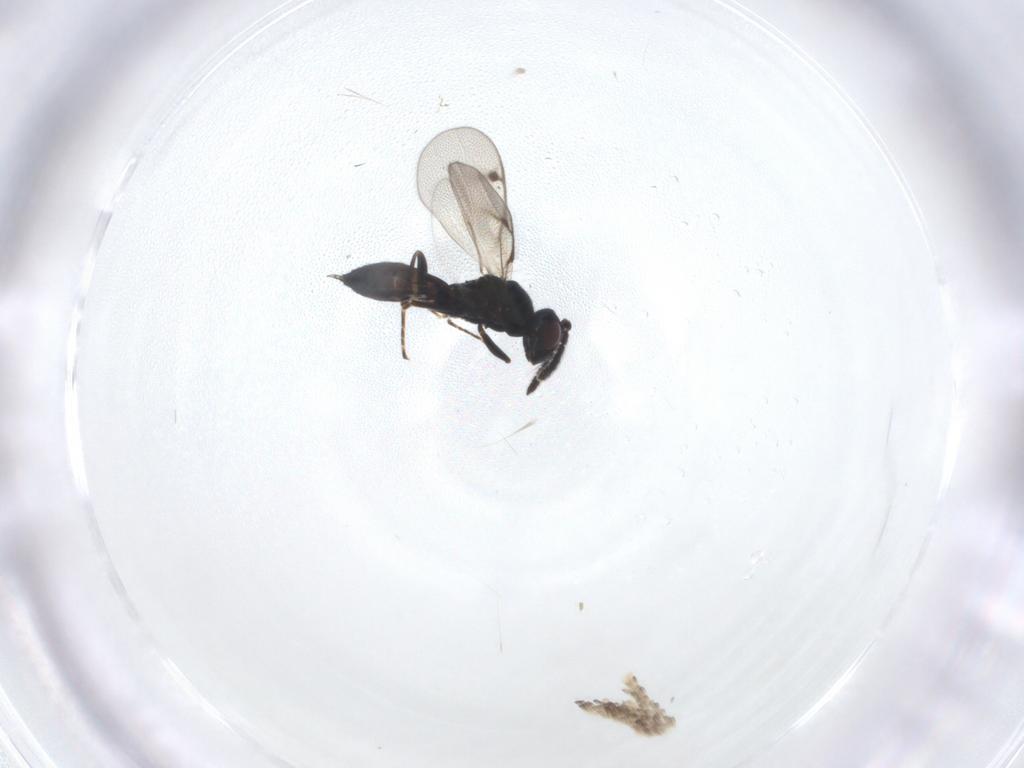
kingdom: Animalia
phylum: Arthropoda
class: Insecta
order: Hymenoptera
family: Pteromalidae
